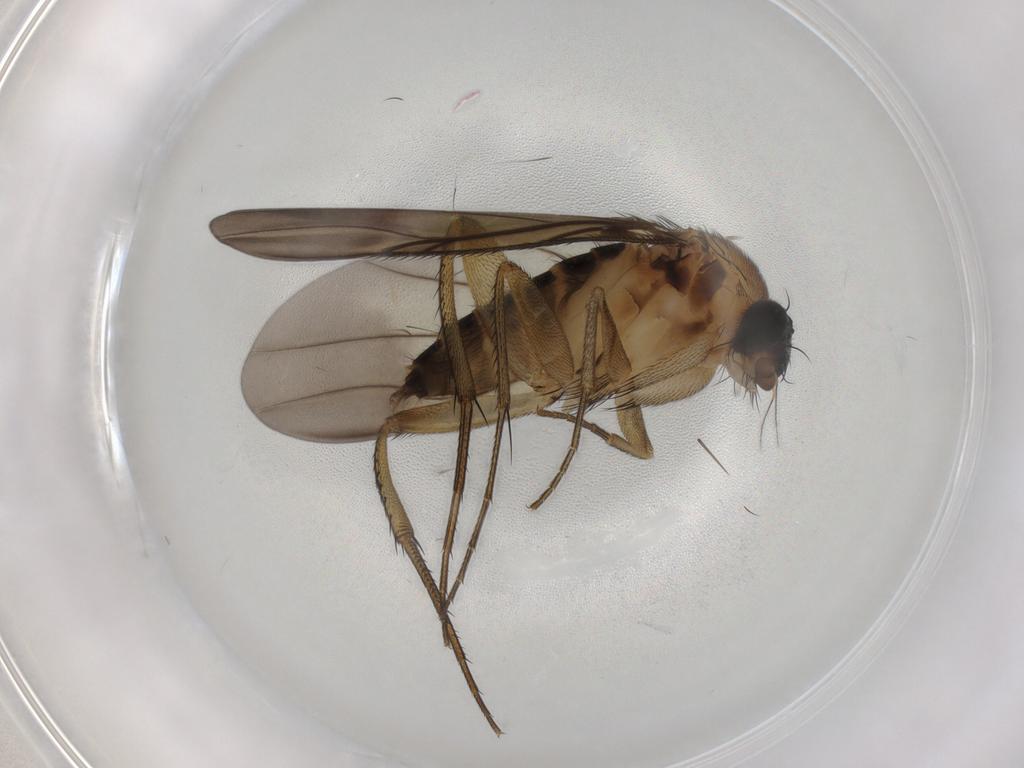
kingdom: Animalia
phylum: Arthropoda
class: Insecta
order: Diptera
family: Phoridae
